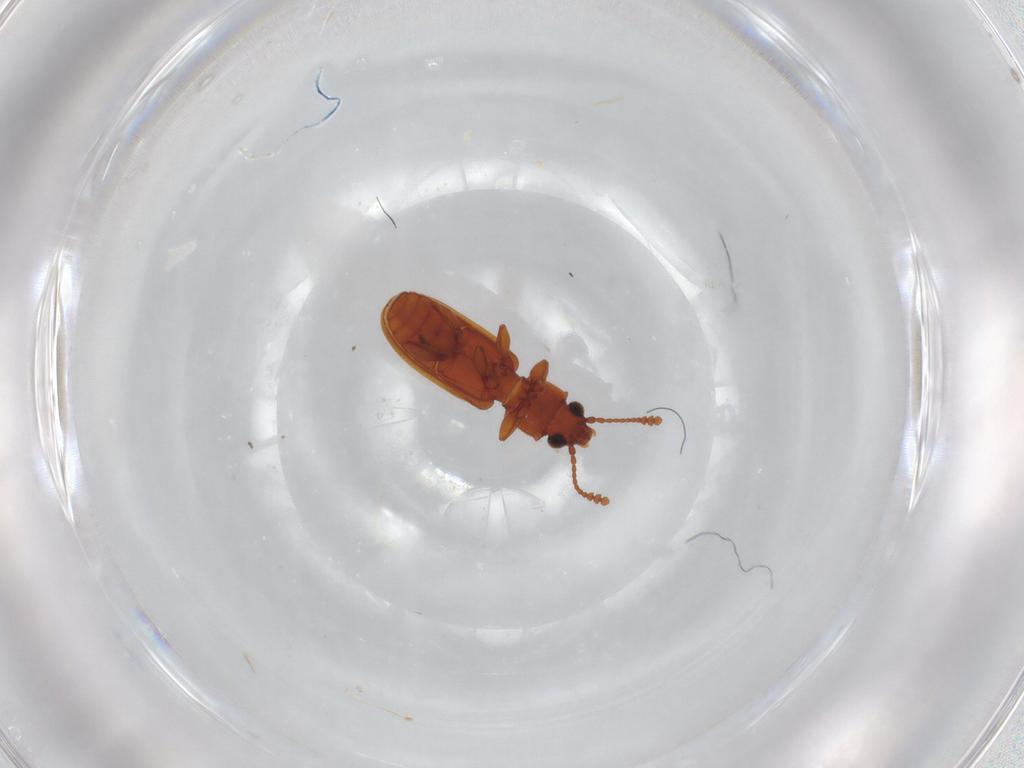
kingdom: Animalia
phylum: Arthropoda
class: Insecta
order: Coleoptera
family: Silvanidae
